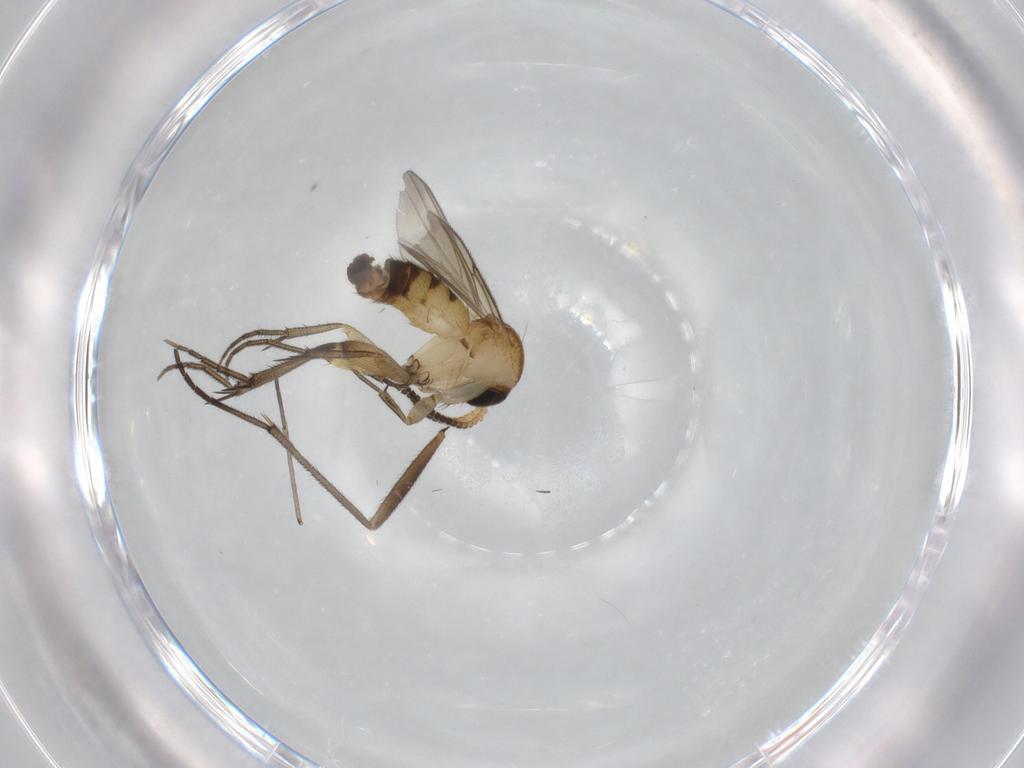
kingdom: Animalia
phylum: Arthropoda
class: Insecta
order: Diptera
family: Mycetophilidae
